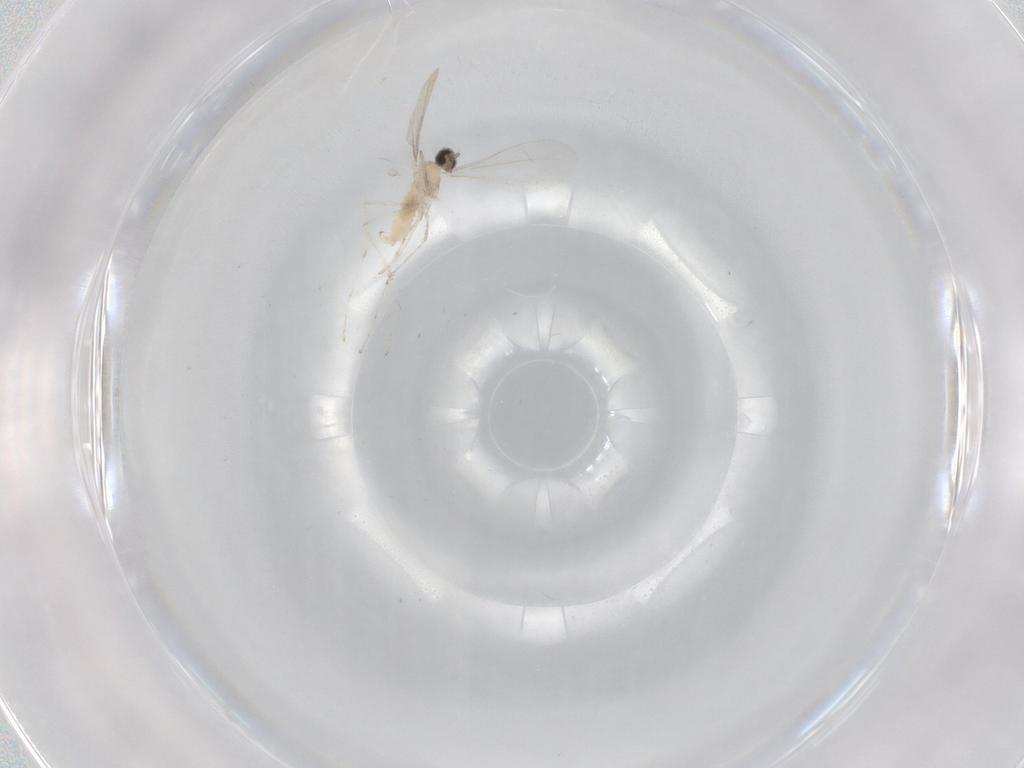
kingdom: Animalia
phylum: Arthropoda
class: Insecta
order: Diptera
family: Cecidomyiidae
